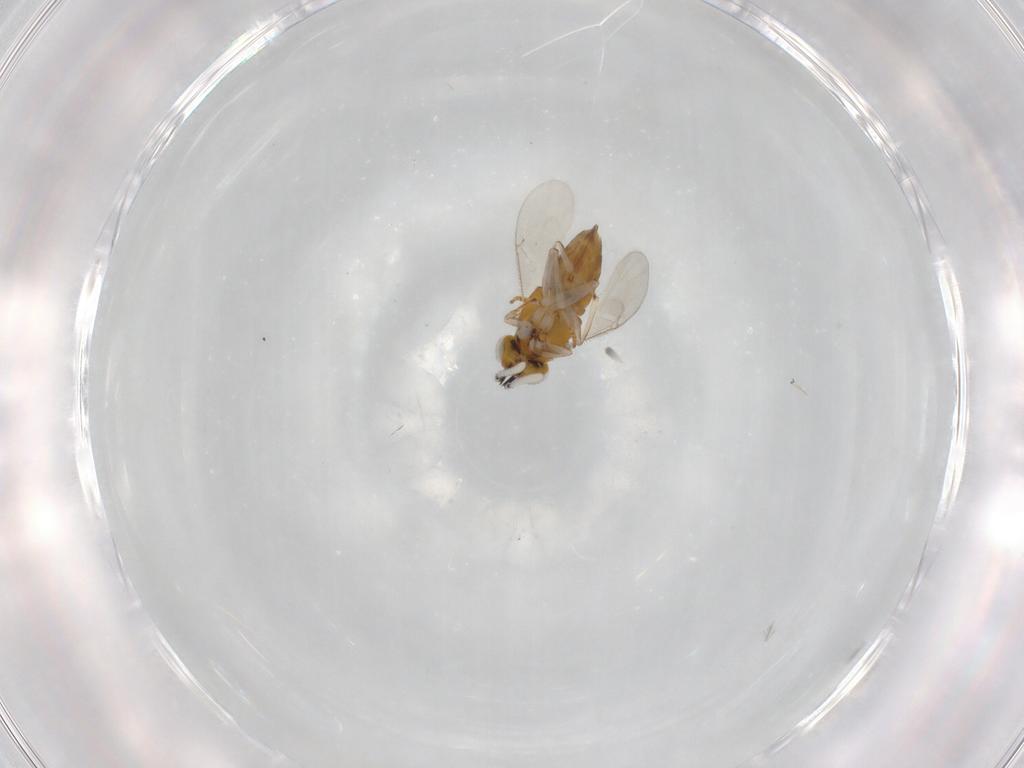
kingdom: Animalia
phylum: Arthropoda
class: Insecta
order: Hymenoptera
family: Encyrtidae
